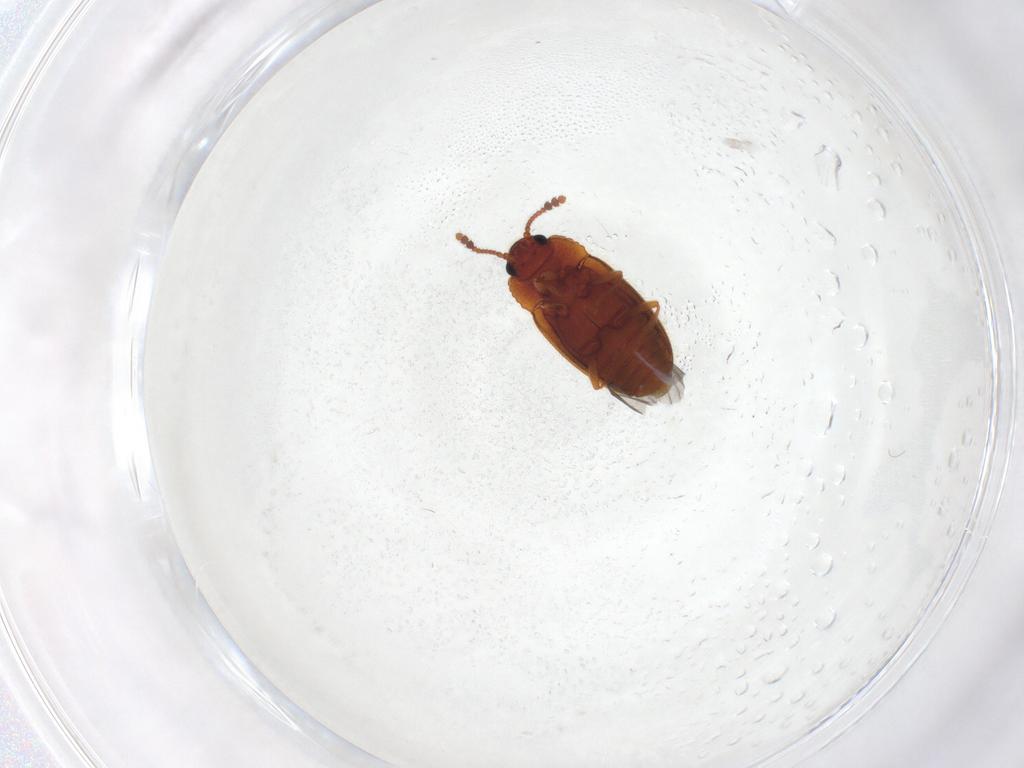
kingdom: Animalia
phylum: Arthropoda
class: Insecta
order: Coleoptera
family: Erotylidae
